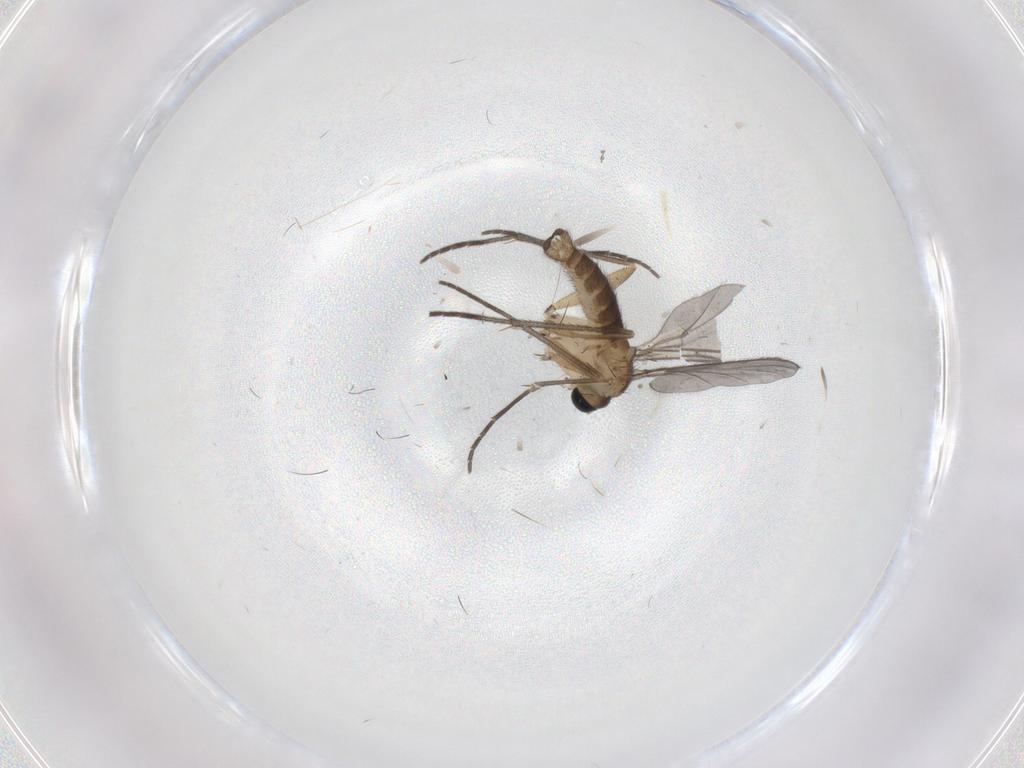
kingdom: Animalia
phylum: Arthropoda
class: Insecta
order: Diptera
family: Sciaridae
